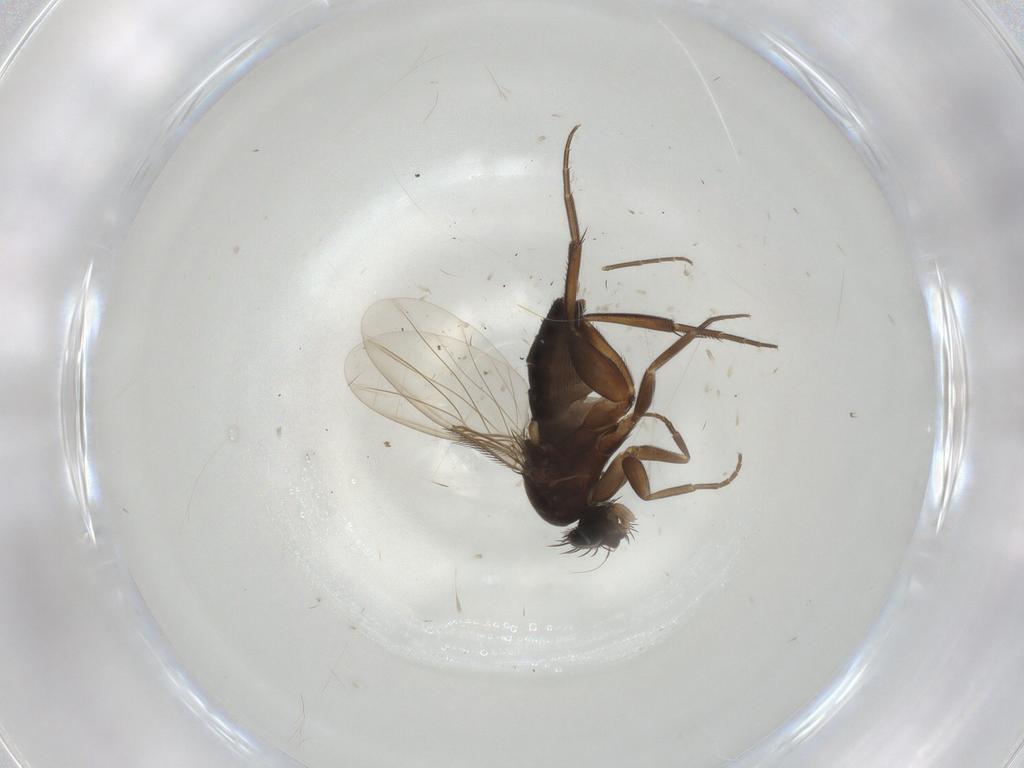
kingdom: Animalia
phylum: Arthropoda
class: Insecta
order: Diptera
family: Phoridae
